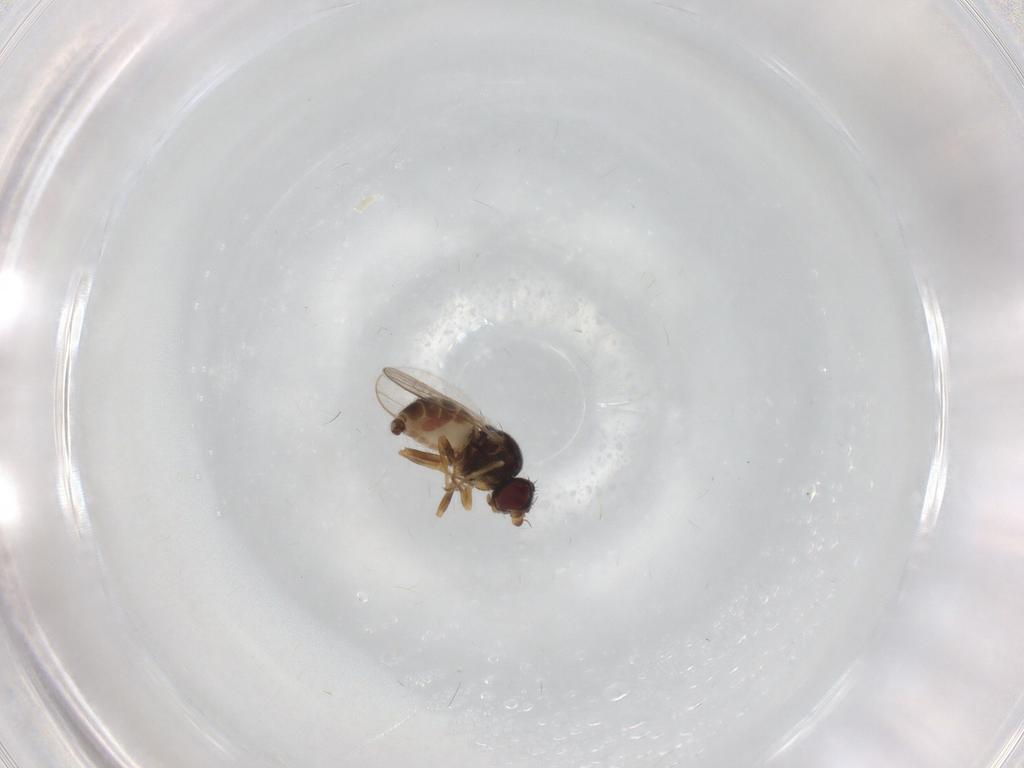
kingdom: Animalia
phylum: Arthropoda
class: Insecta
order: Diptera
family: Chloropidae
